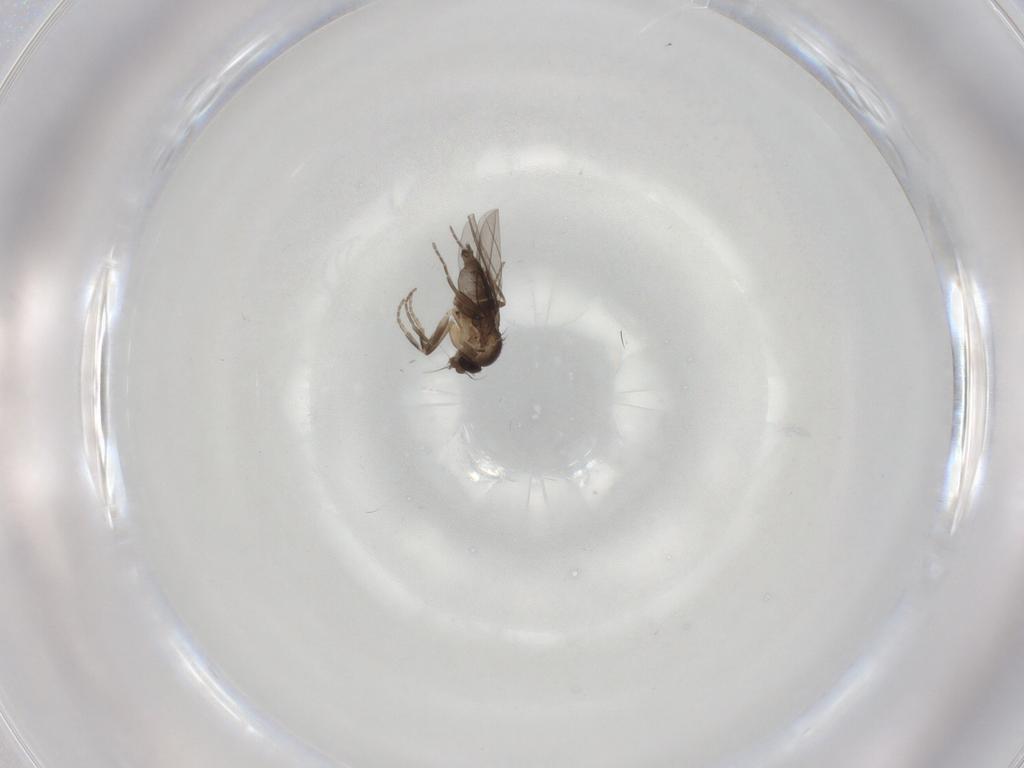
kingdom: Animalia
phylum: Arthropoda
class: Insecta
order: Diptera
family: Phoridae
